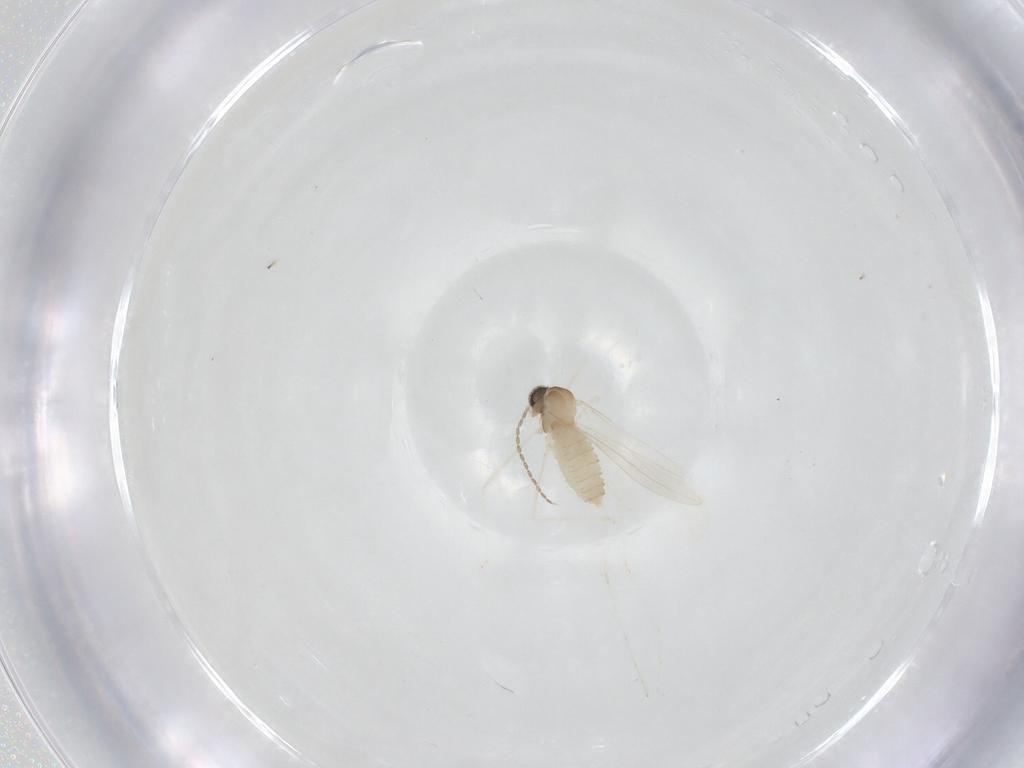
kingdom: Animalia
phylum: Arthropoda
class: Insecta
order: Diptera
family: Cecidomyiidae
